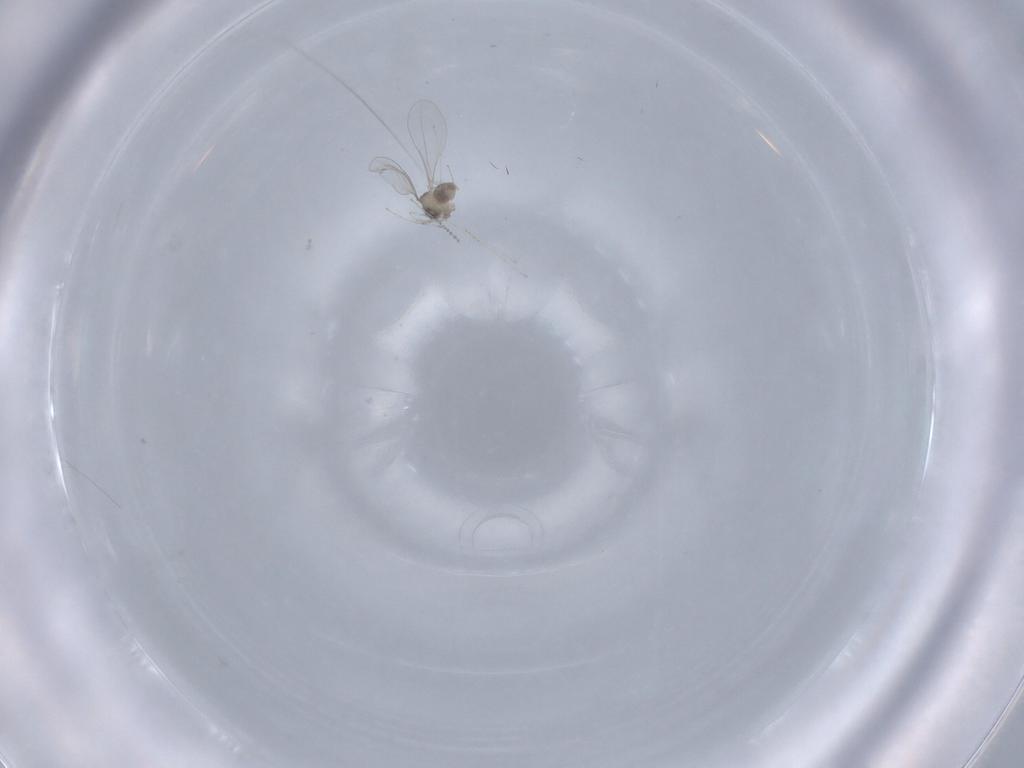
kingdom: Animalia
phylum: Arthropoda
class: Insecta
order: Diptera
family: Cecidomyiidae
